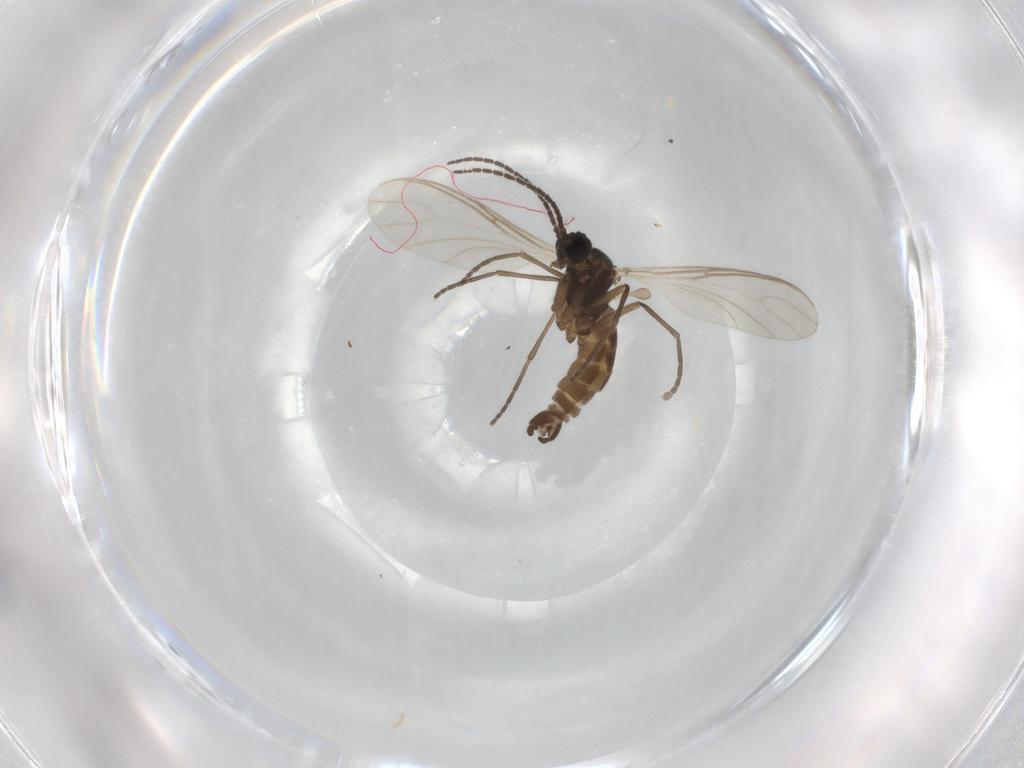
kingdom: Animalia
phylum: Arthropoda
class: Insecta
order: Diptera
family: Sciaridae
